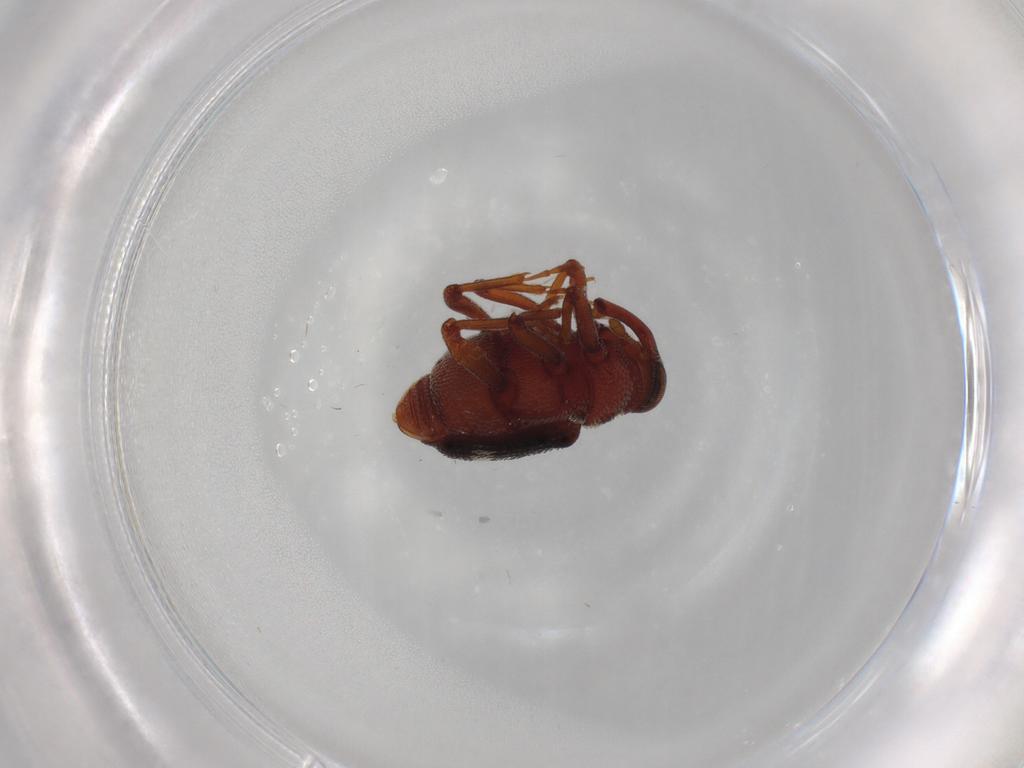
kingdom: Animalia
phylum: Arthropoda
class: Insecta
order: Coleoptera
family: Curculionidae
